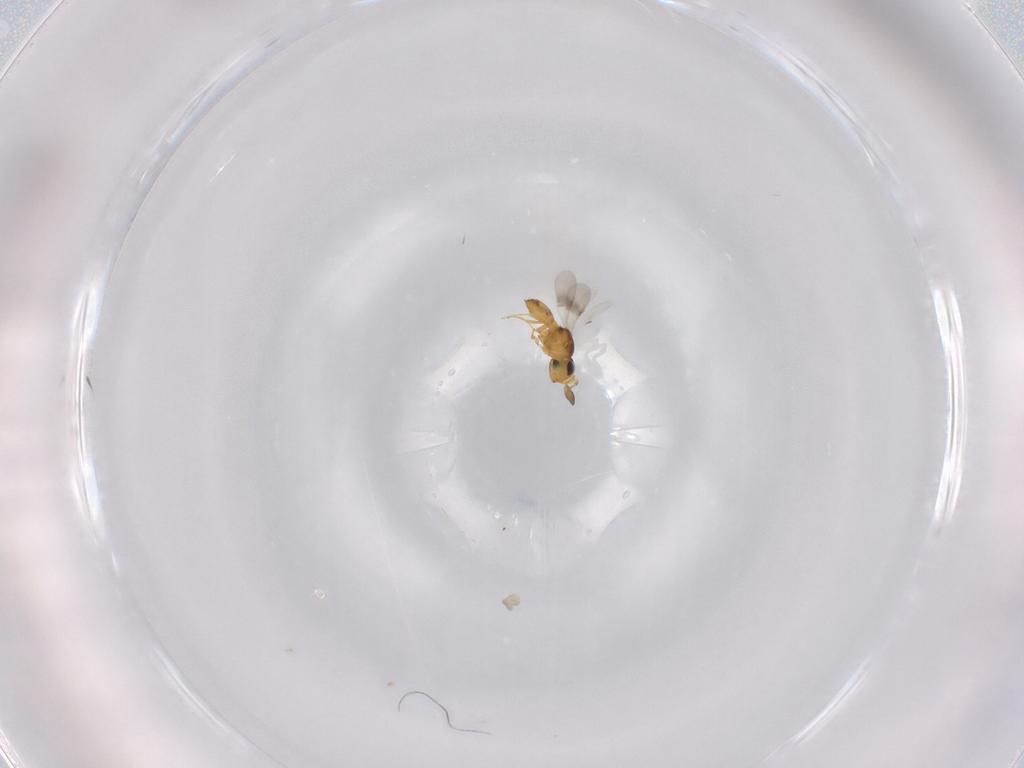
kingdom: Animalia
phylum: Arthropoda
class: Insecta
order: Hymenoptera
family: Scelionidae
